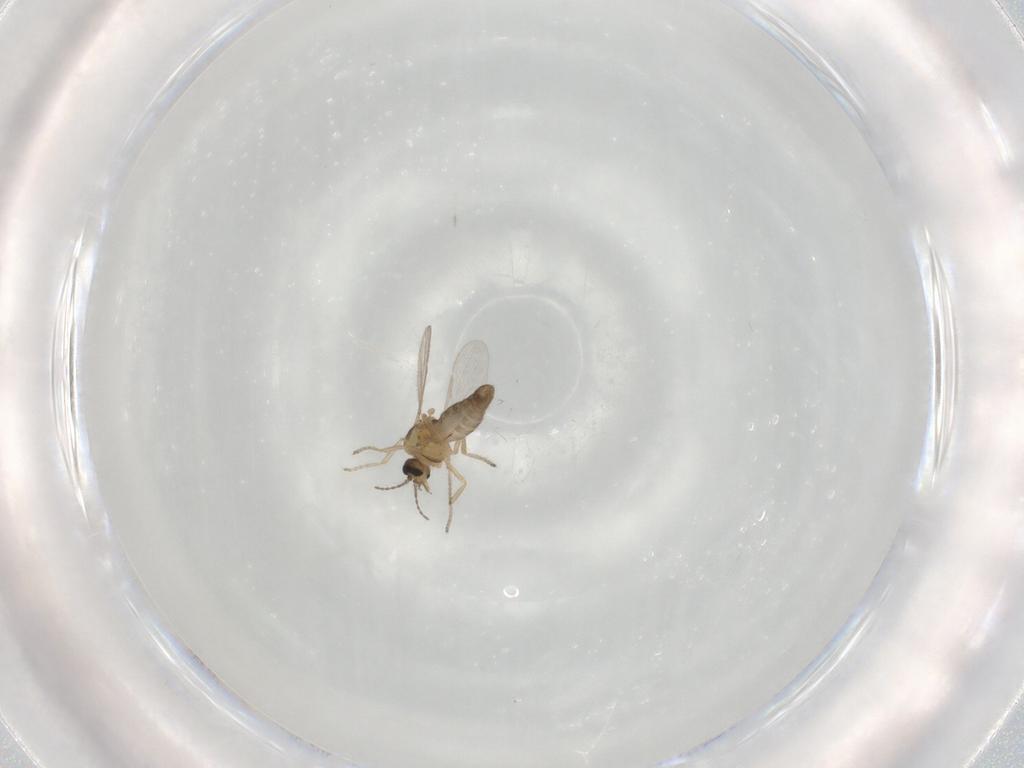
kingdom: Animalia
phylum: Arthropoda
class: Insecta
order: Diptera
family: Ceratopogonidae
